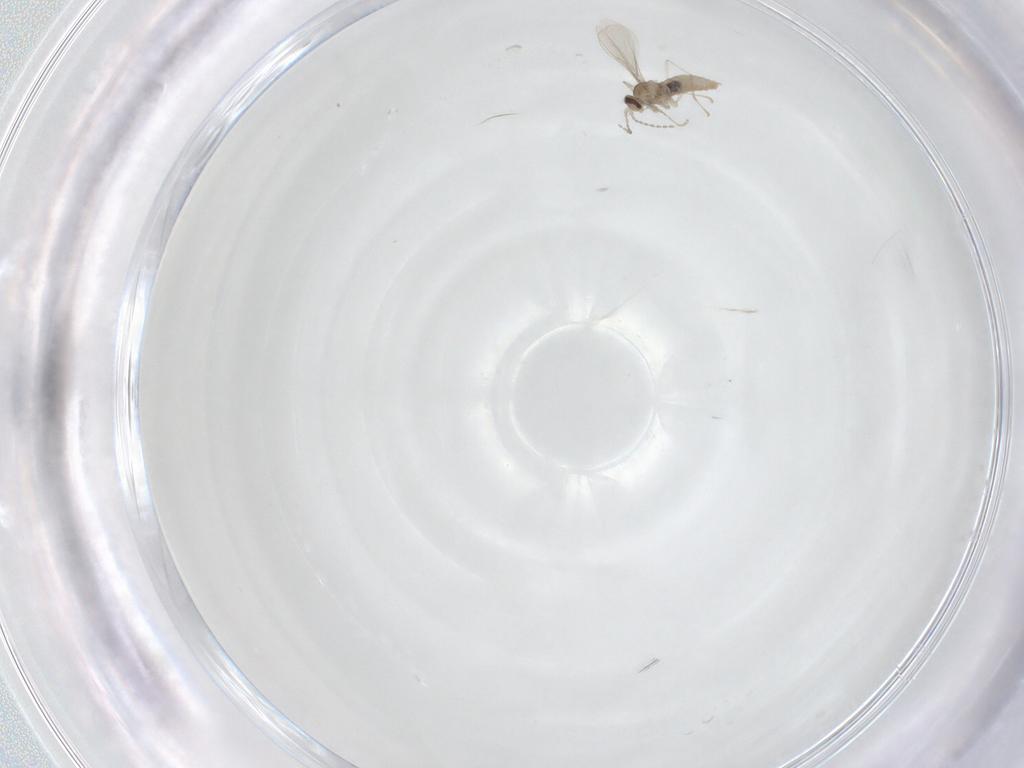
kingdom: Animalia
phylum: Arthropoda
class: Insecta
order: Diptera
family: Cecidomyiidae
